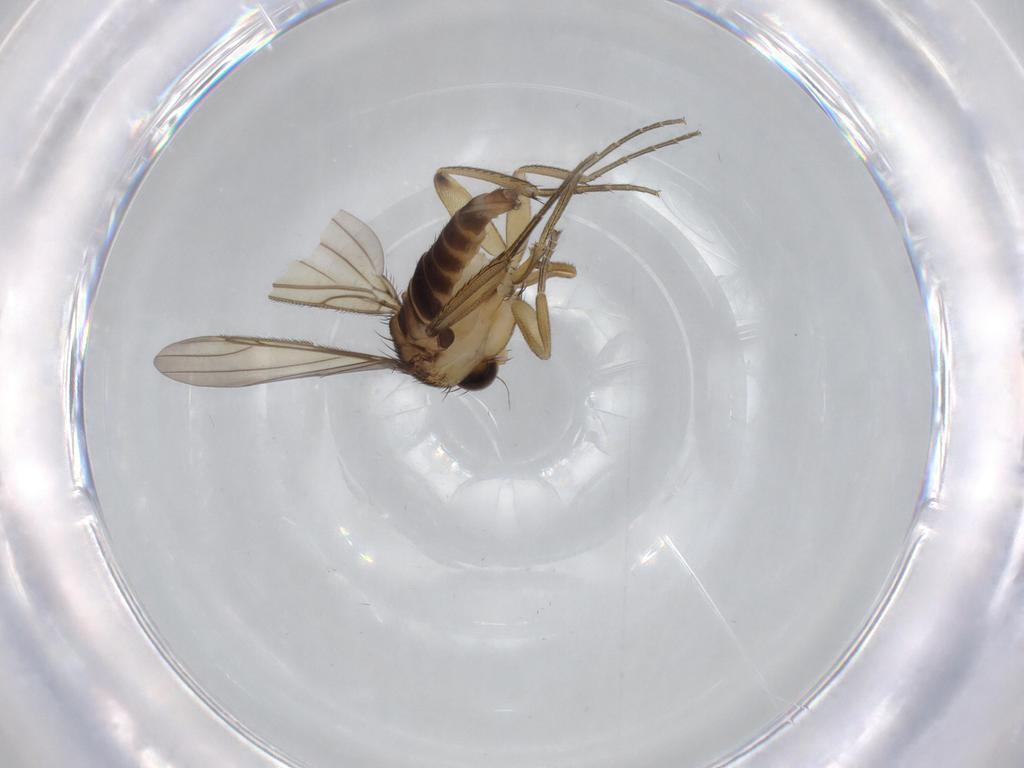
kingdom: Animalia
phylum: Arthropoda
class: Insecta
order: Diptera
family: Phoridae
